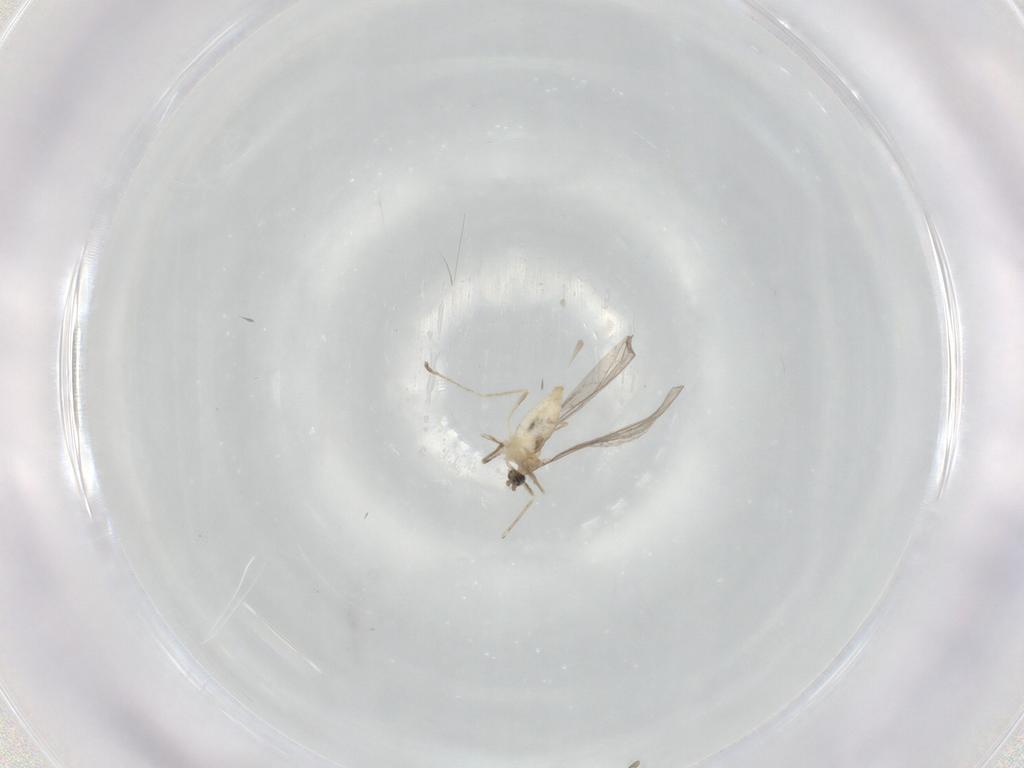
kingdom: Animalia
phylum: Arthropoda
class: Insecta
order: Diptera
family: Cecidomyiidae
